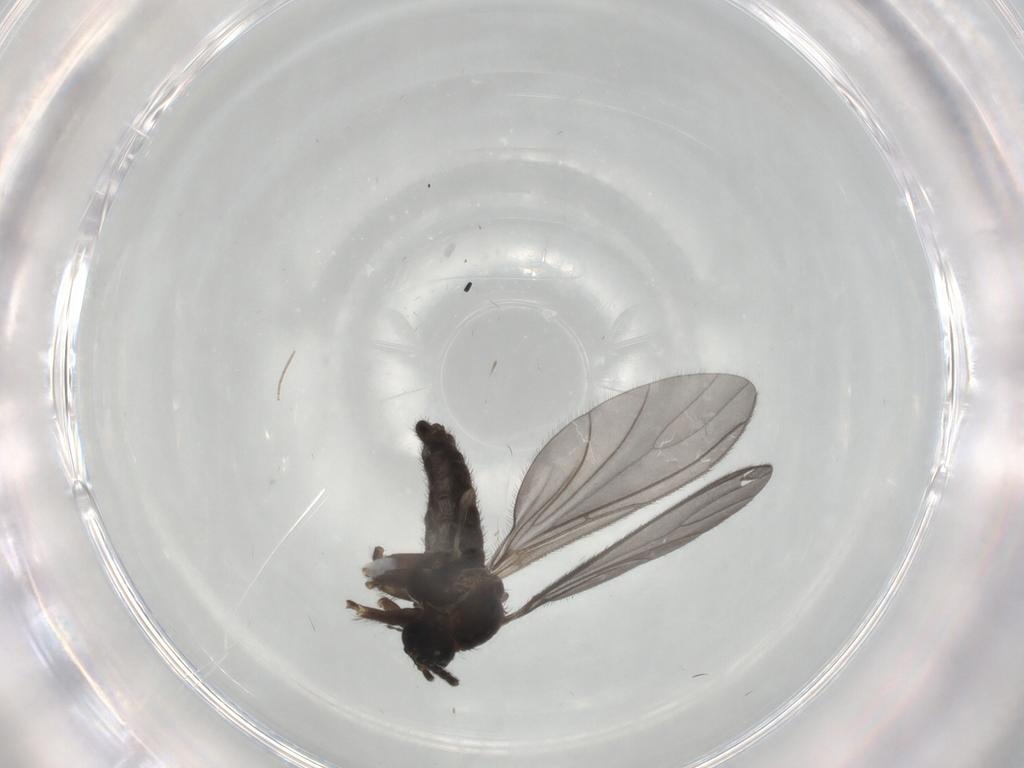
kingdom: Animalia
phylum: Arthropoda
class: Insecta
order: Diptera
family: Sciaridae
